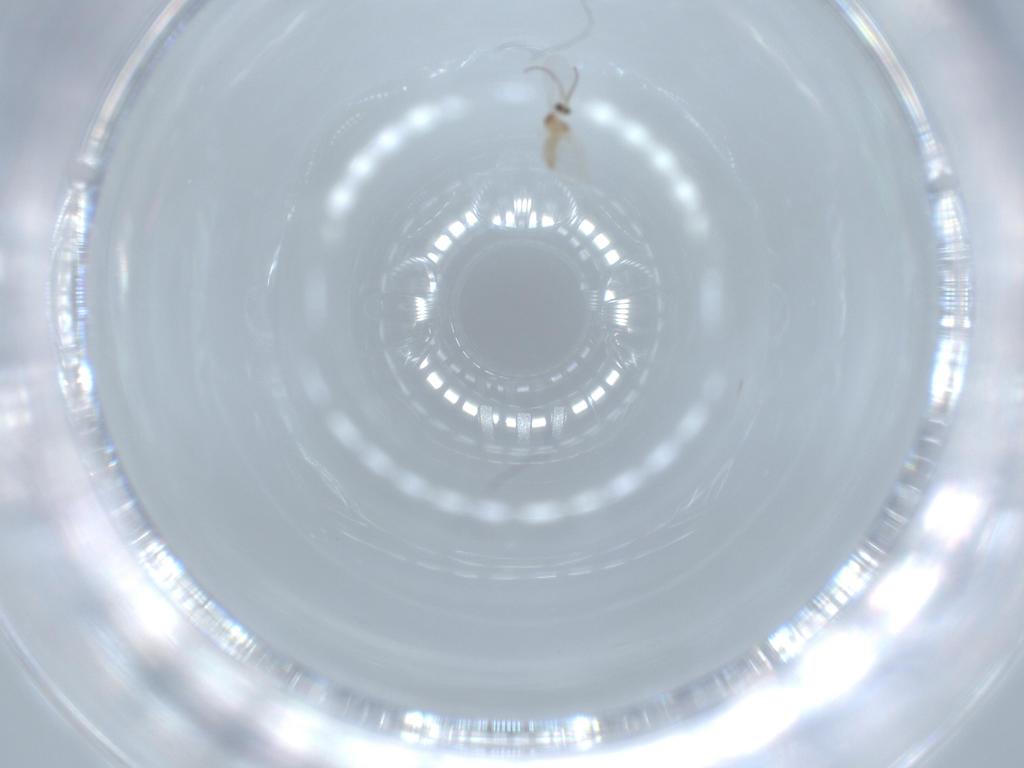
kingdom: Animalia
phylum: Arthropoda
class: Insecta
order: Diptera
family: Cecidomyiidae
